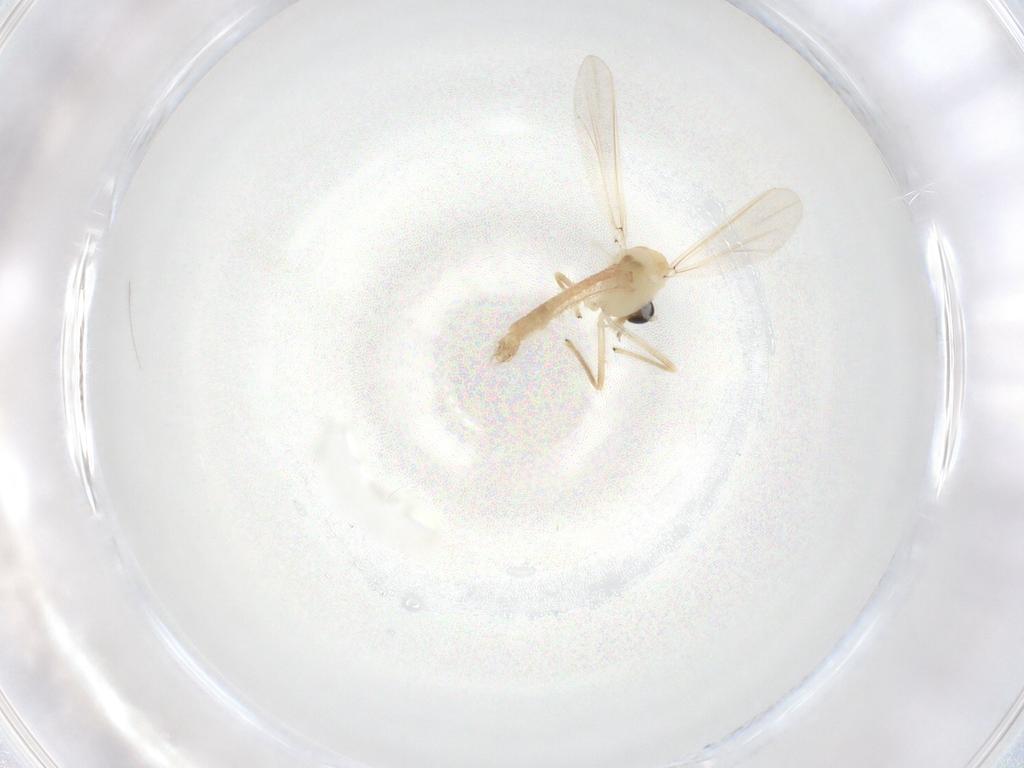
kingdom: Animalia
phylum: Arthropoda
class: Insecta
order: Diptera
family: Chironomidae
